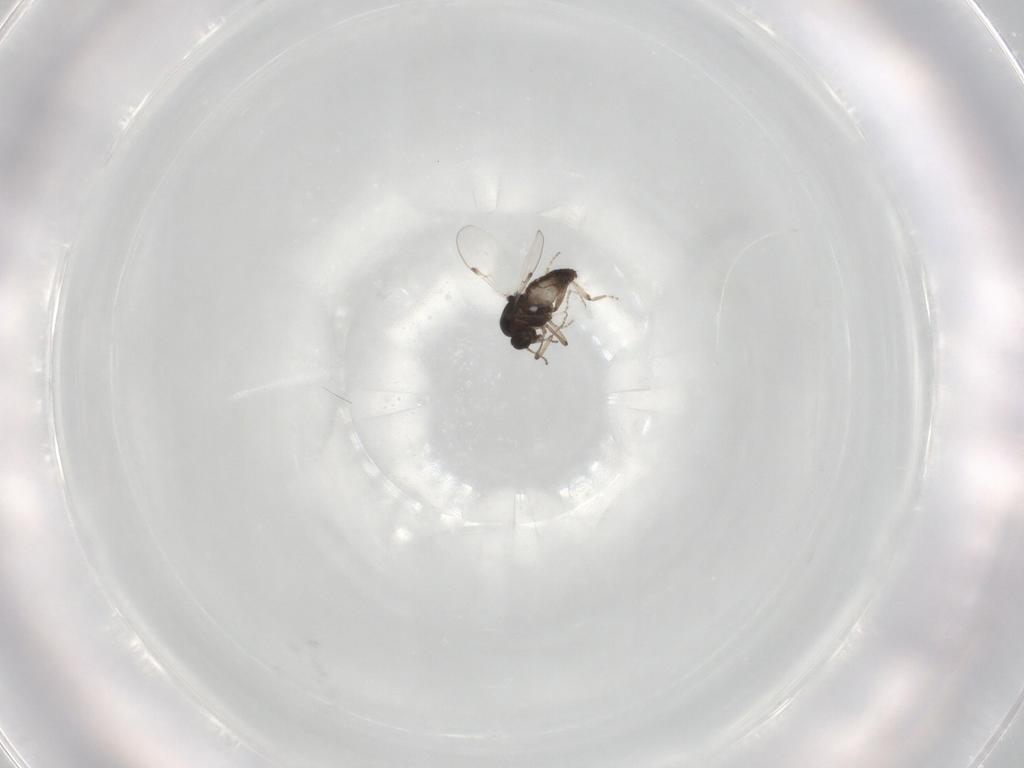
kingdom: Animalia
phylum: Arthropoda
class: Insecta
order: Diptera
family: Ceratopogonidae
